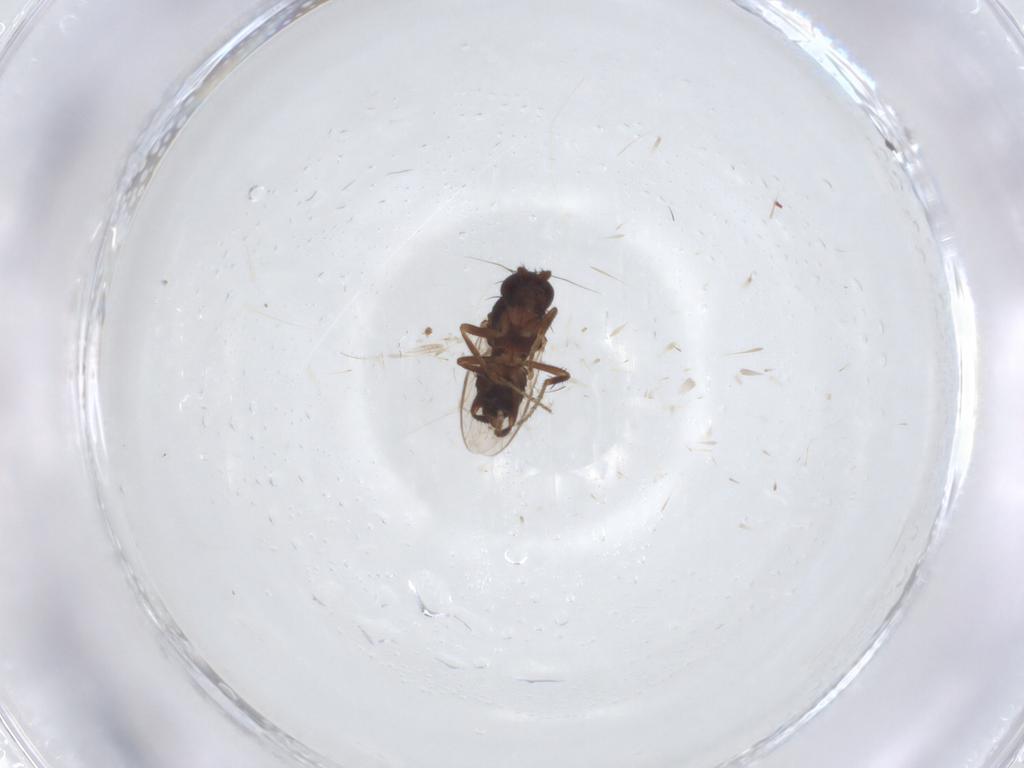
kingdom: Animalia
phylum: Arthropoda
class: Insecta
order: Diptera
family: Sphaeroceridae
